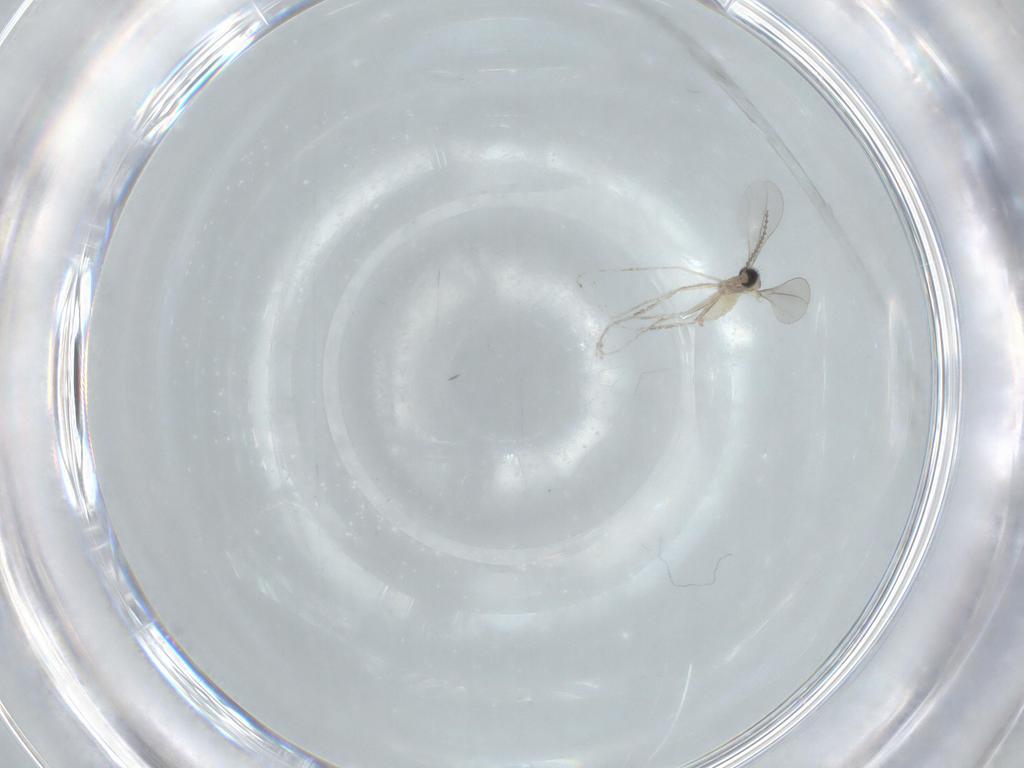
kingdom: Animalia
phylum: Arthropoda
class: Insecta
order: Diptera
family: Cecidomyiidae
